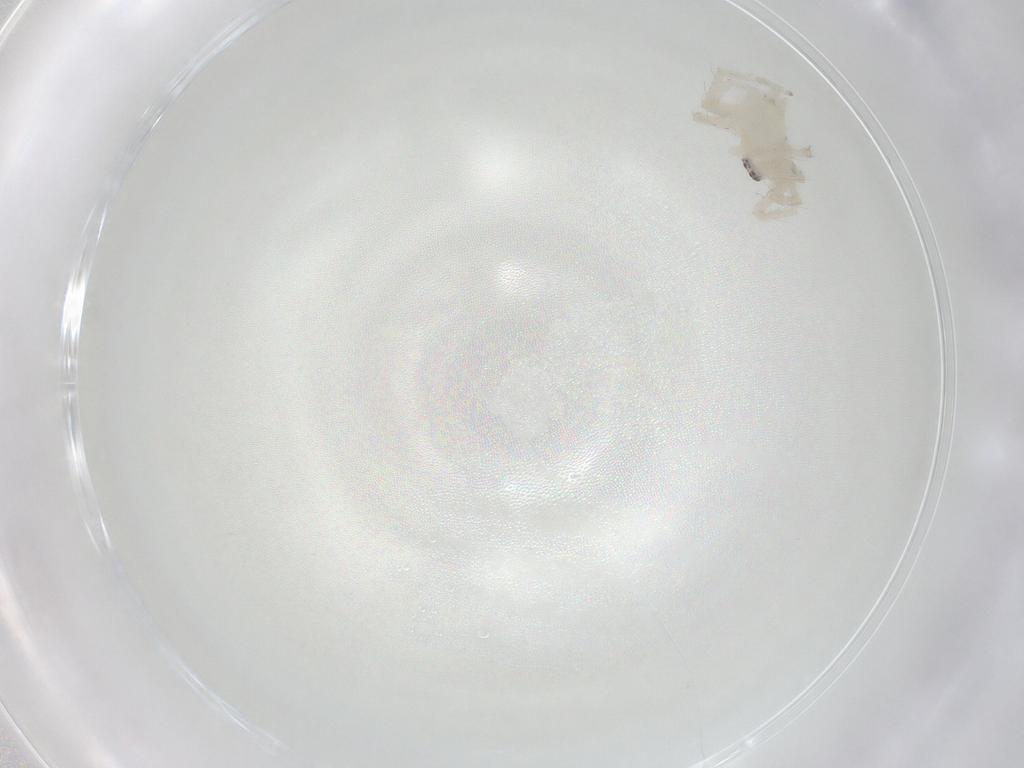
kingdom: Animalia
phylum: Arthropoda
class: Arachnida
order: Araneae
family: Anyphaenidae
